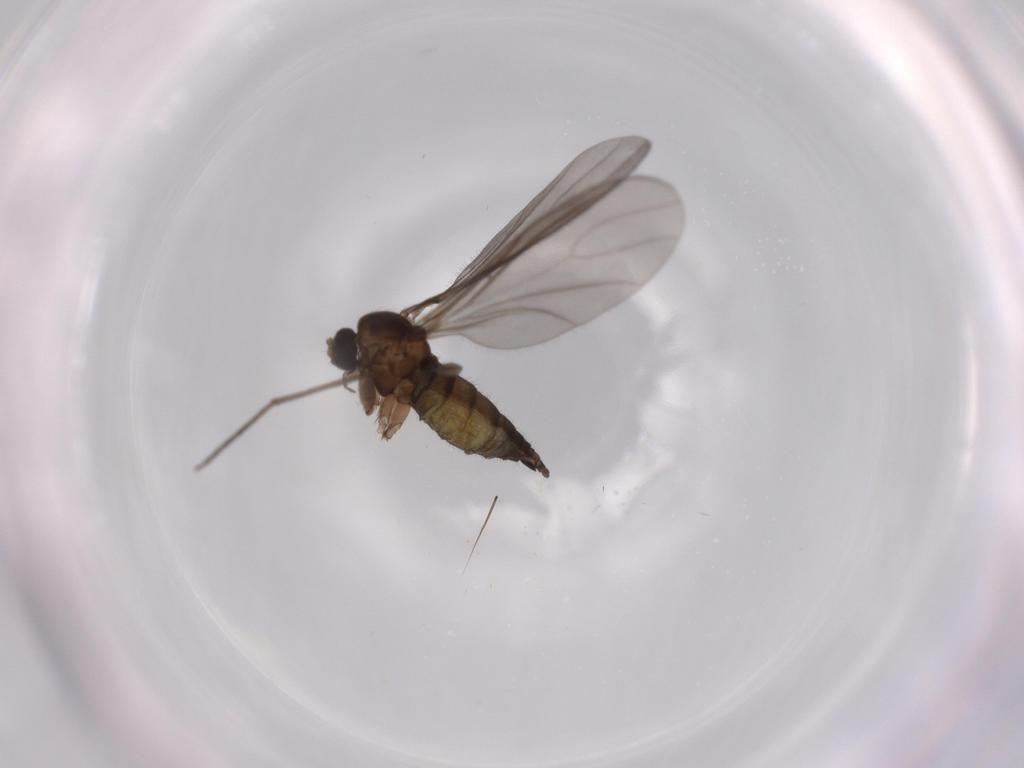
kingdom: Animalia
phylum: Arthropoda
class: Insecta
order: Diptera
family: Sciaridae
